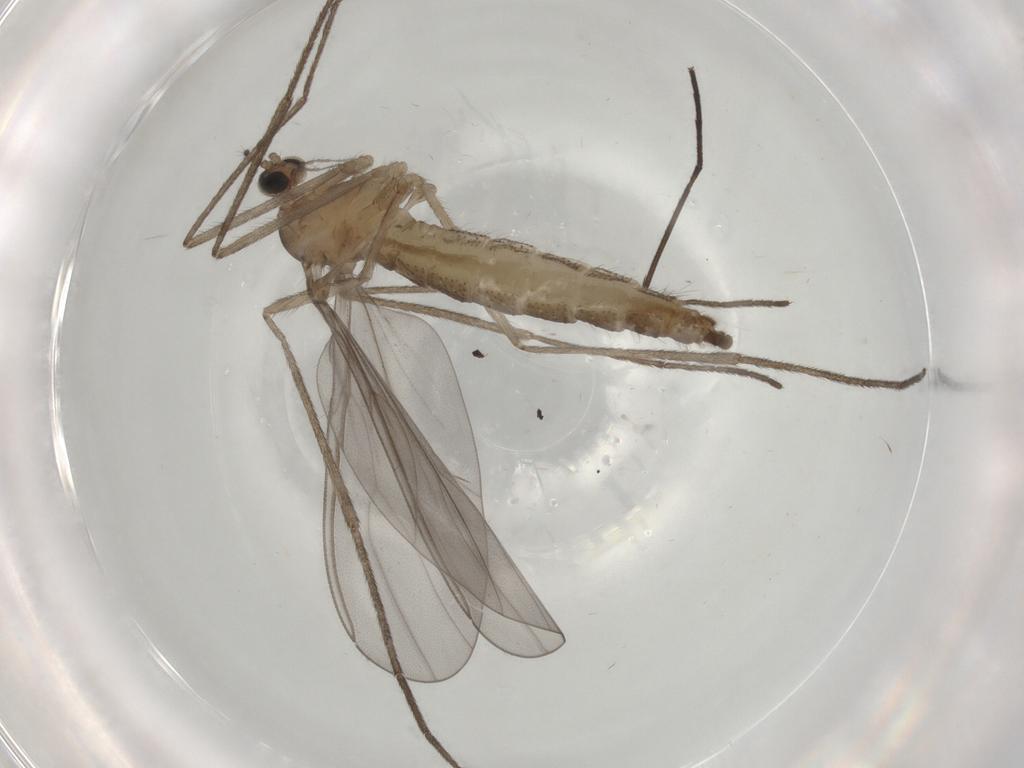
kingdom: Animalia
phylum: Arthropoda
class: Insecta
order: Diptera
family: Cecidomyiidae
